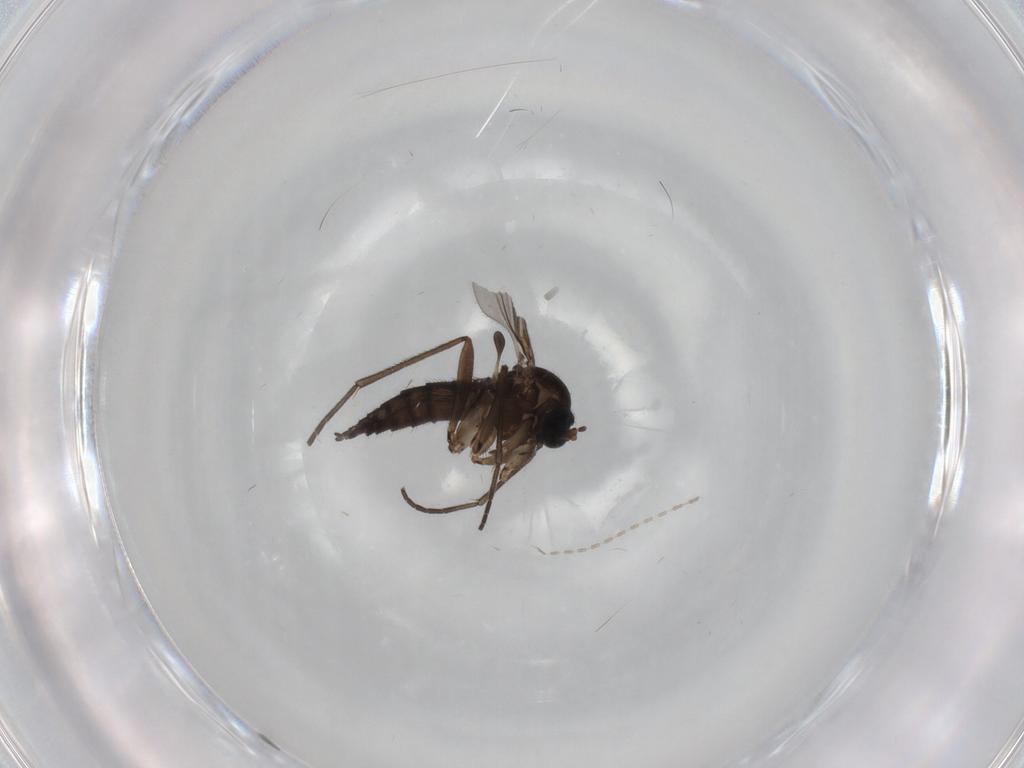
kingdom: Animalia
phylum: Arthropoda
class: Insecta
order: Diptera
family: Sciaridae
